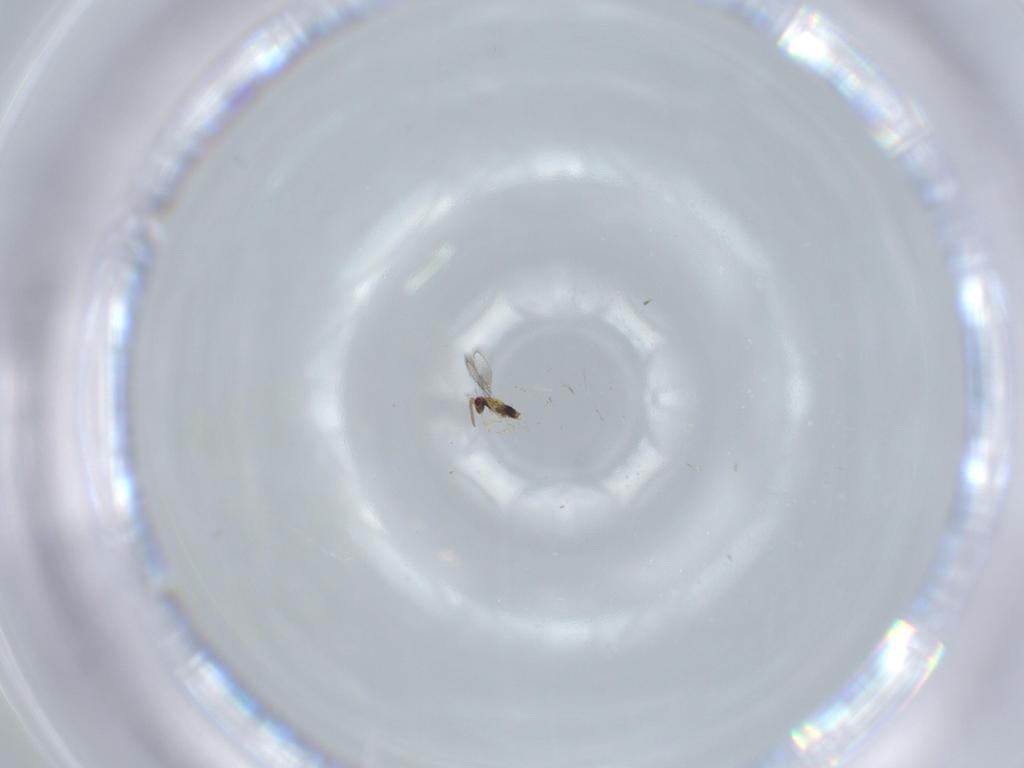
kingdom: Animalia
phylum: Arthropoda
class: Insecta
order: Hymenoptera
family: Aphelinidae
